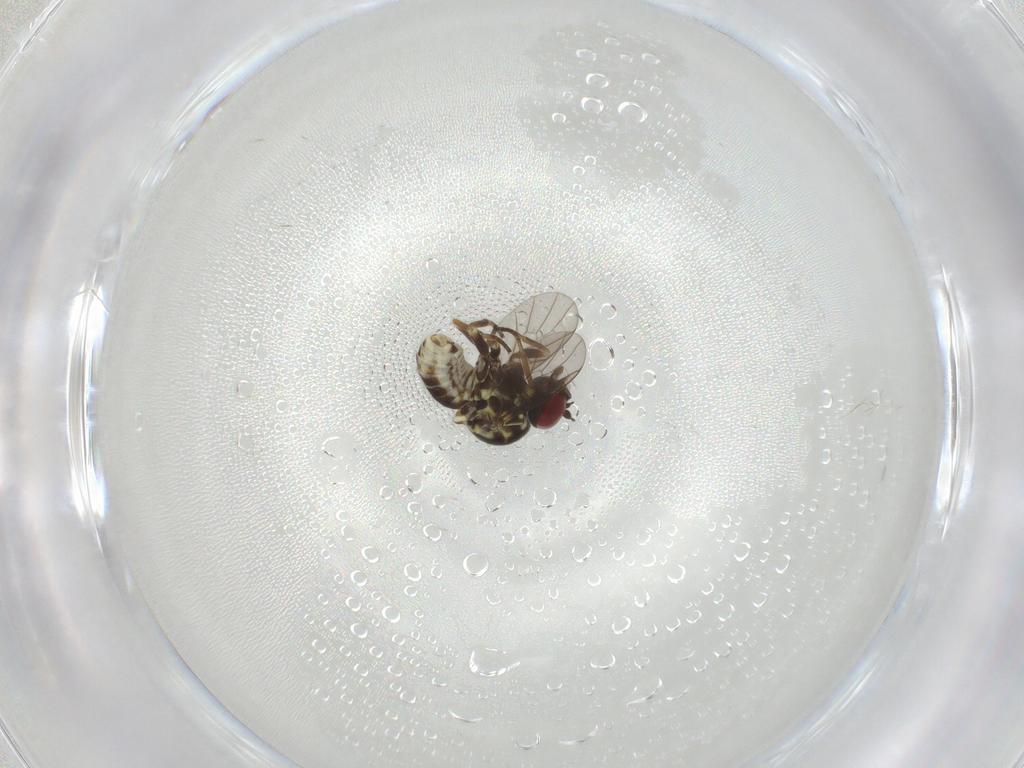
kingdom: Animalia
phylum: Arthropoda
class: Insecta
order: Diptera
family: Bombyliidae
